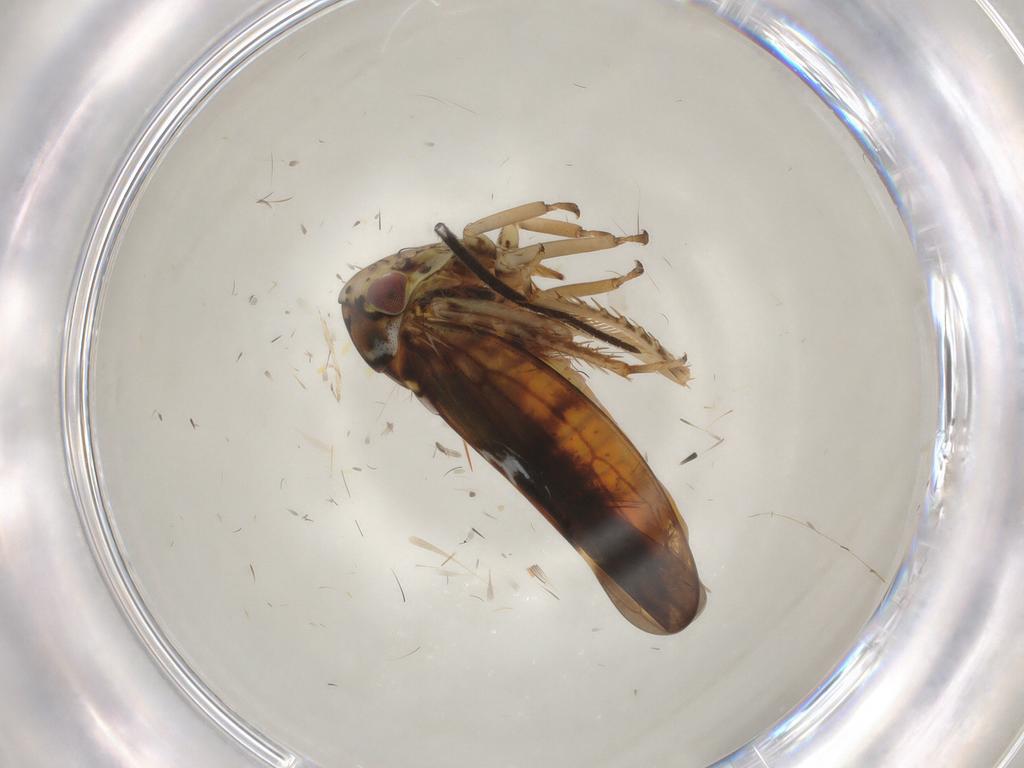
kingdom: Animalia
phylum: Arthropoda
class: Insecta
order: Hemiptera
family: Cicadellidae
